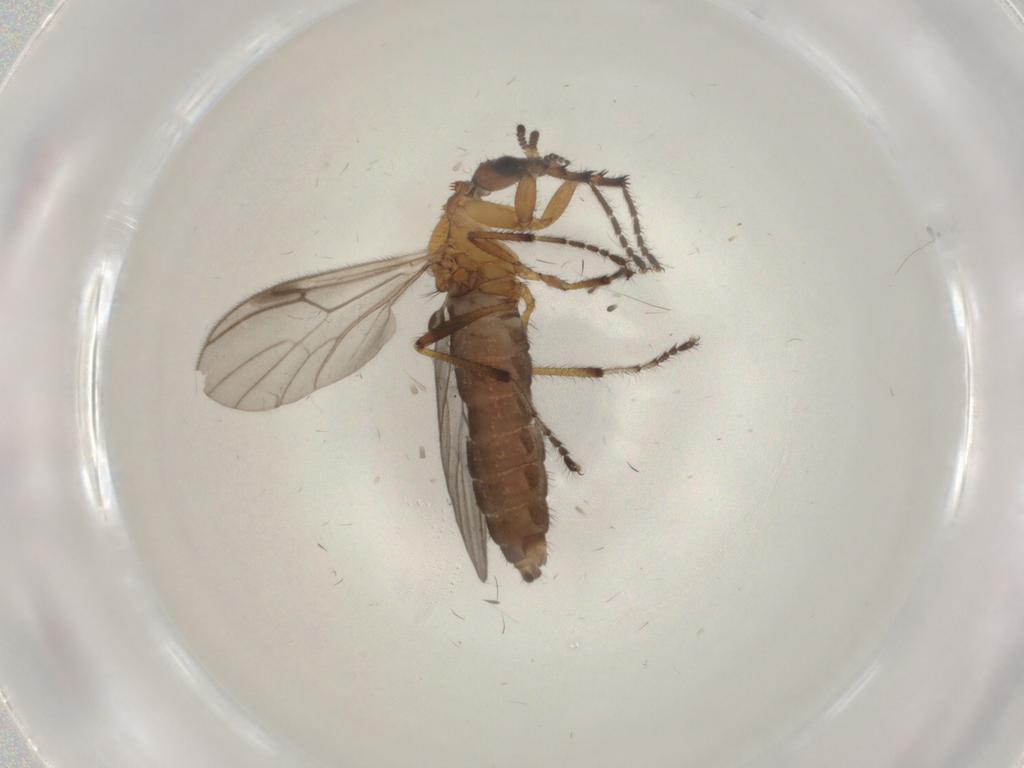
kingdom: Animalia
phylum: Arthropoda
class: Insecta
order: Diptera
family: Bibionidae
